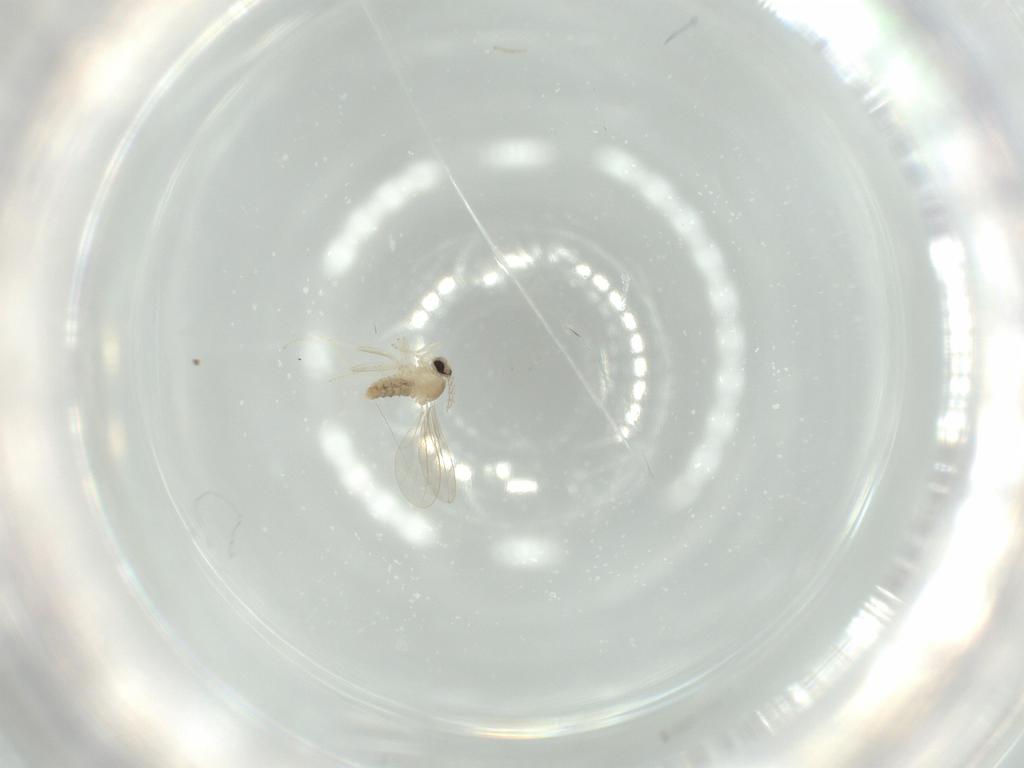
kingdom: Animalia
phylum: Arthropoda
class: Insecta
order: Diptera
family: Cecidomyiidae
